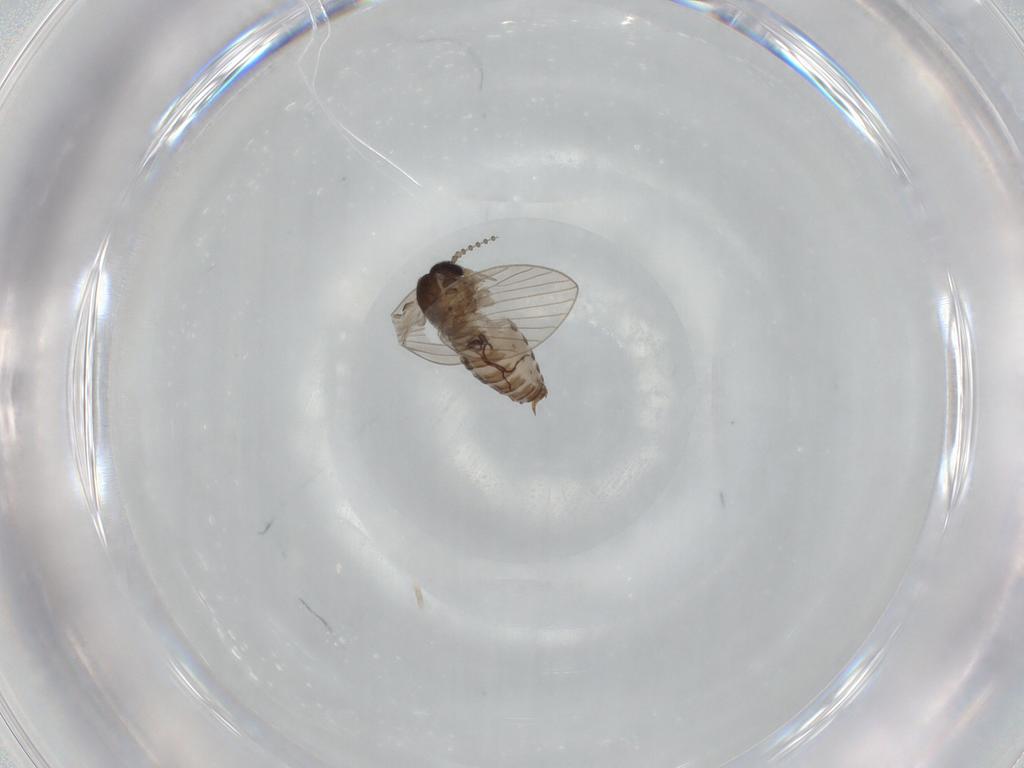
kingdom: Animalia
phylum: Arthropoda
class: Insecta
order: Diptera
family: Psychodidae
